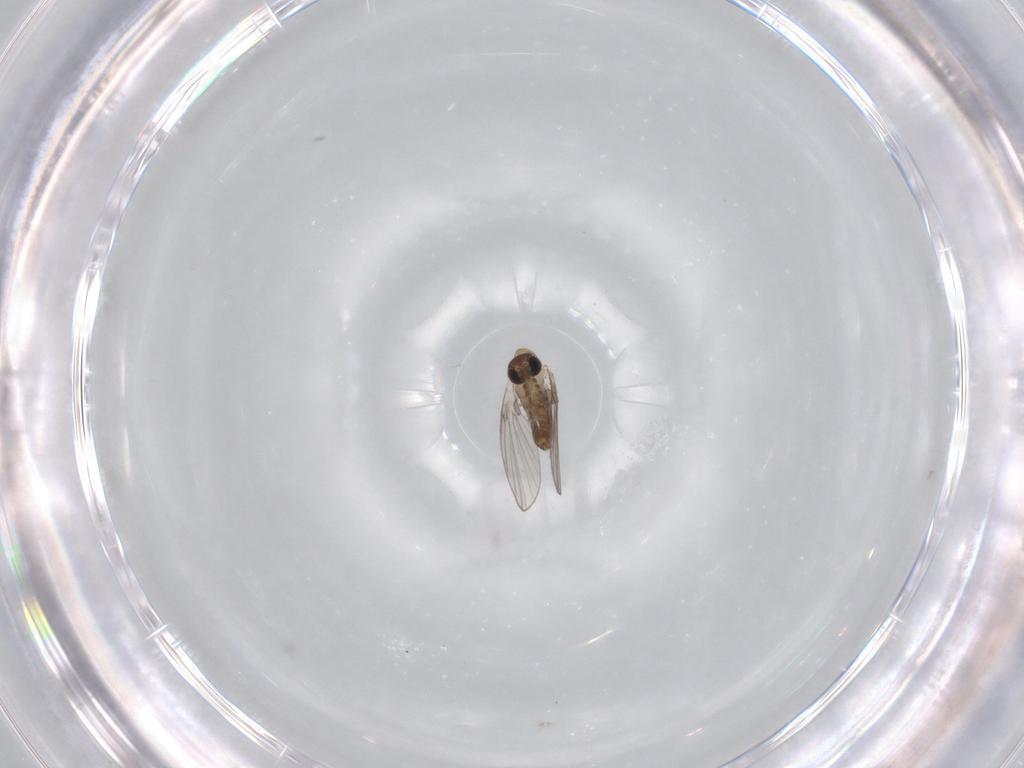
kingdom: Animalia
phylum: Arthropoda
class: Insecta
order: Diptera
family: Psychodidae
